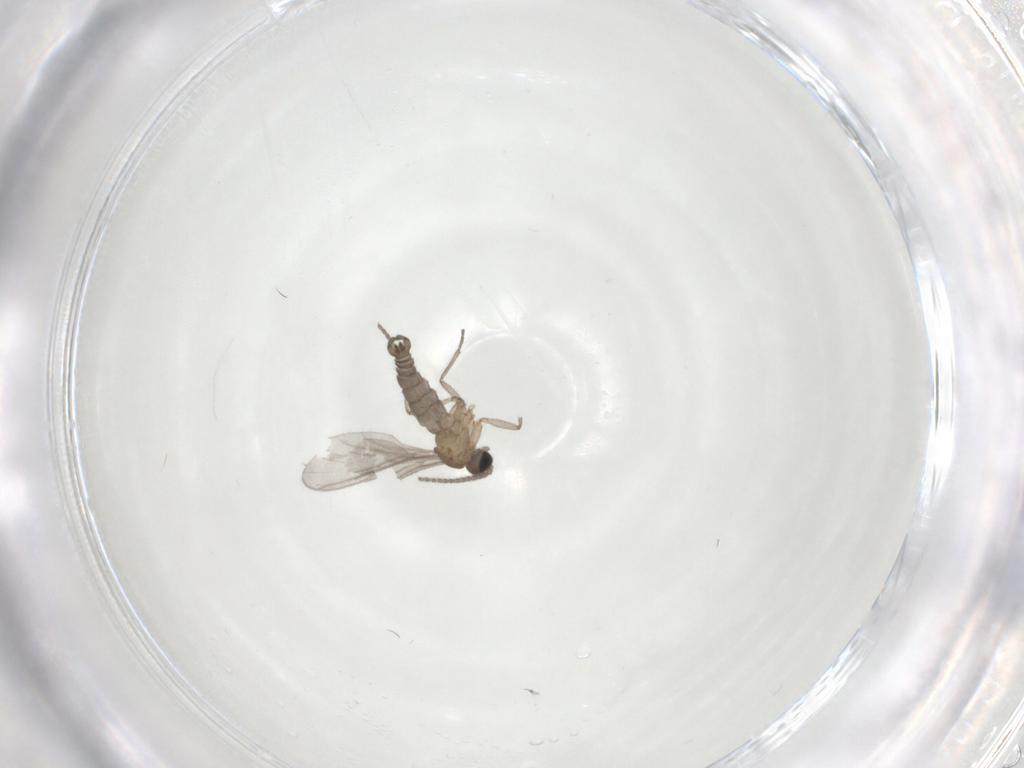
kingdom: Animalia
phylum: Arthropoda
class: Insecta
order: Diptera
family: Sciaridae
